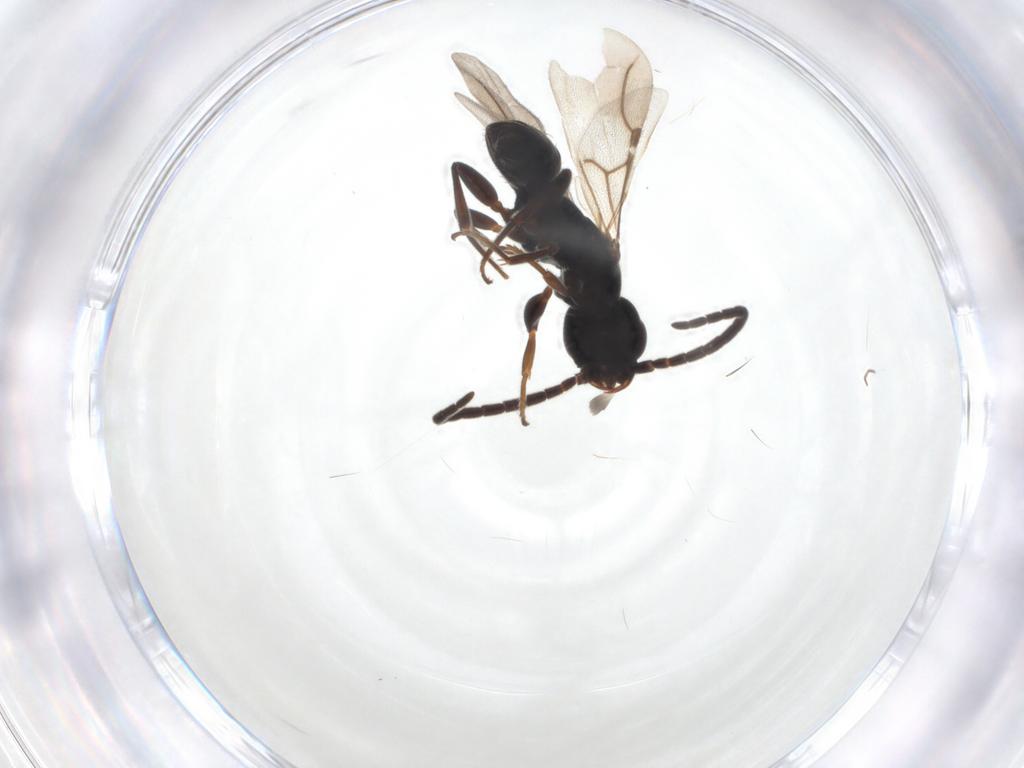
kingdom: Animalia
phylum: Arthropoda
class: Insecta
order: Hymenoptera
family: Bethylidae
